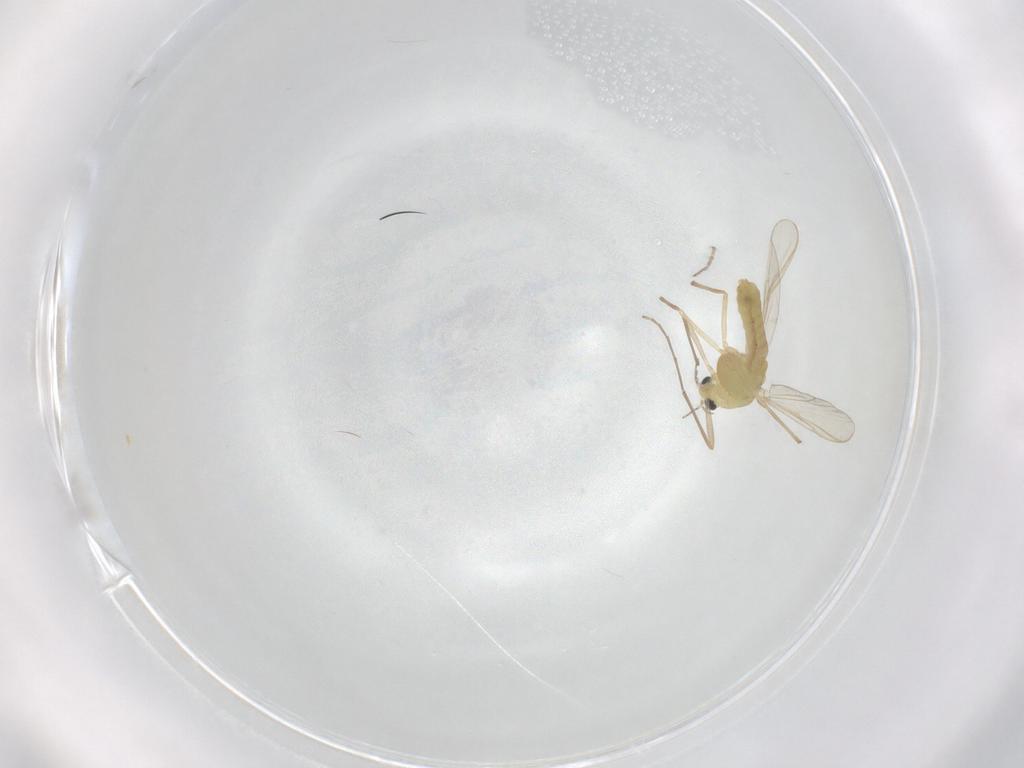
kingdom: Animalia
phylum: Arthropoda
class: Insecta
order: Diptera
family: Chironomidae
